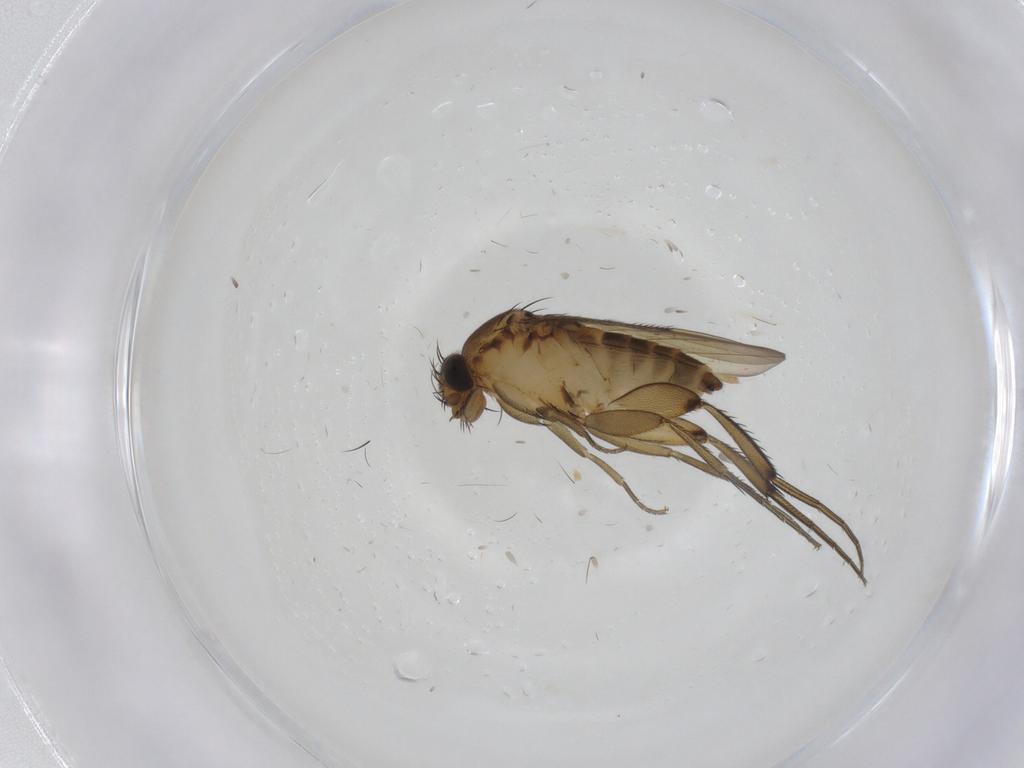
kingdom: Animalia
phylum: Arthropoda
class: Insecta
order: Diptera
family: Phoridae
